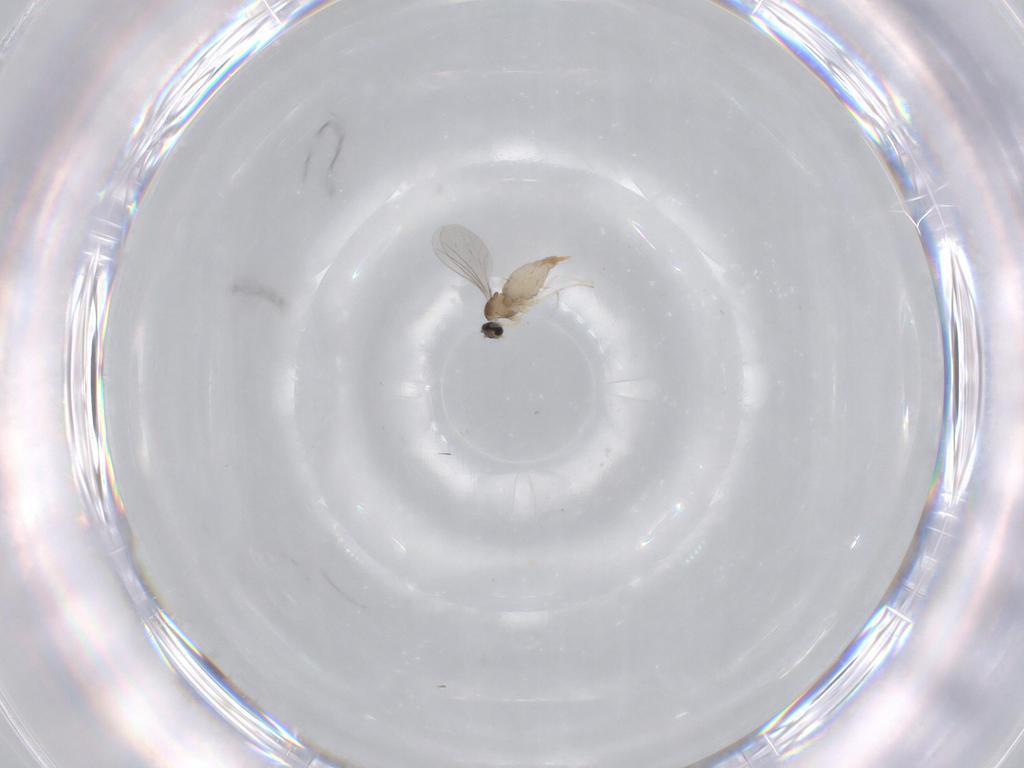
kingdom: Animalia
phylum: Arthropoda
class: Insecta
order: Diptera
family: Cecidomyiidae
